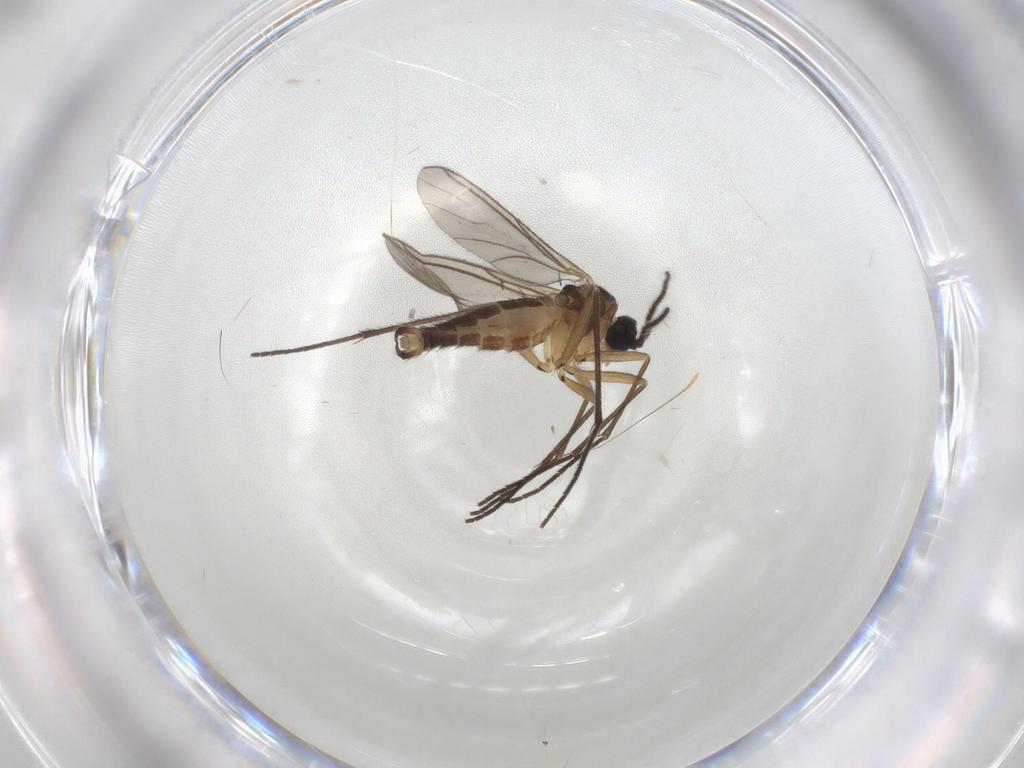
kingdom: Animalia
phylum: Arthropoda
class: Insecta
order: Diptera
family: Sciaridae
